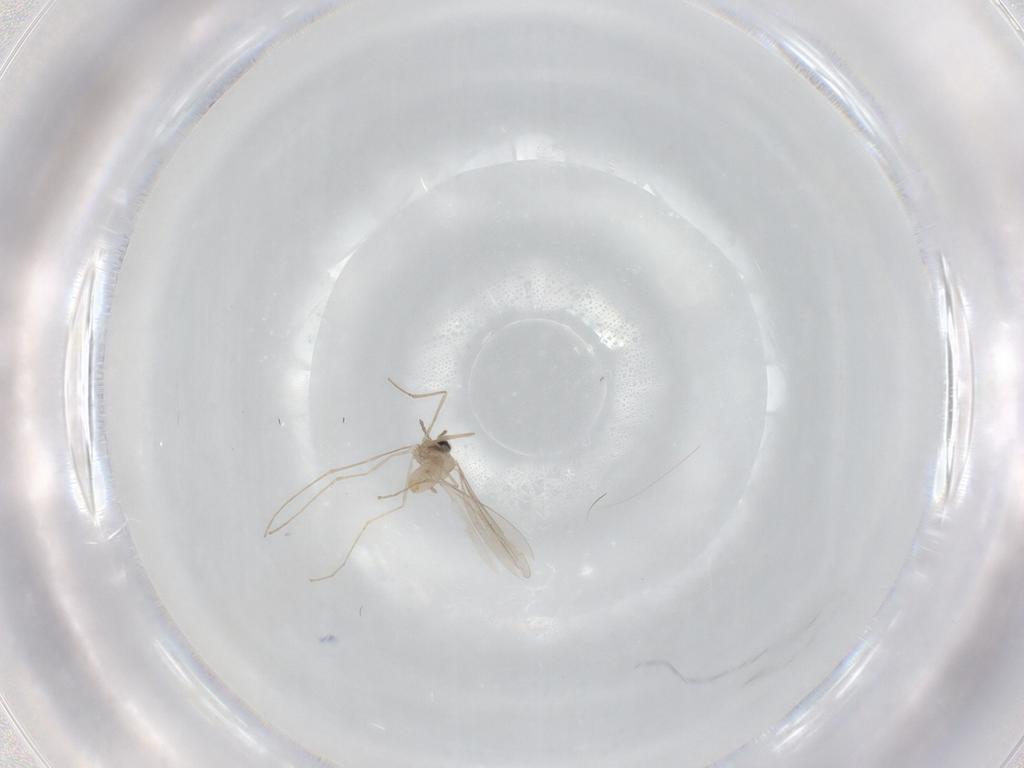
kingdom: Animalia
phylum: Arthropoda
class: Insecta
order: Diptera
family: Cecidomyiidae
